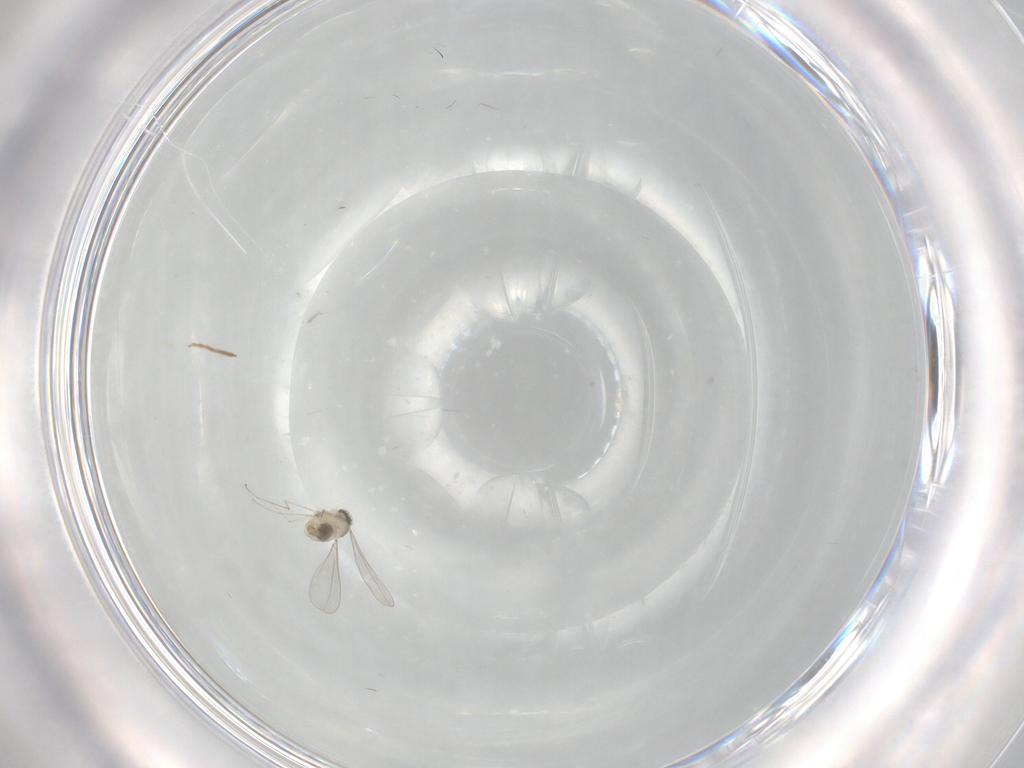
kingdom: Animalia
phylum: Arthropoda
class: Insecta
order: Diptera
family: Cecidomyiidae
